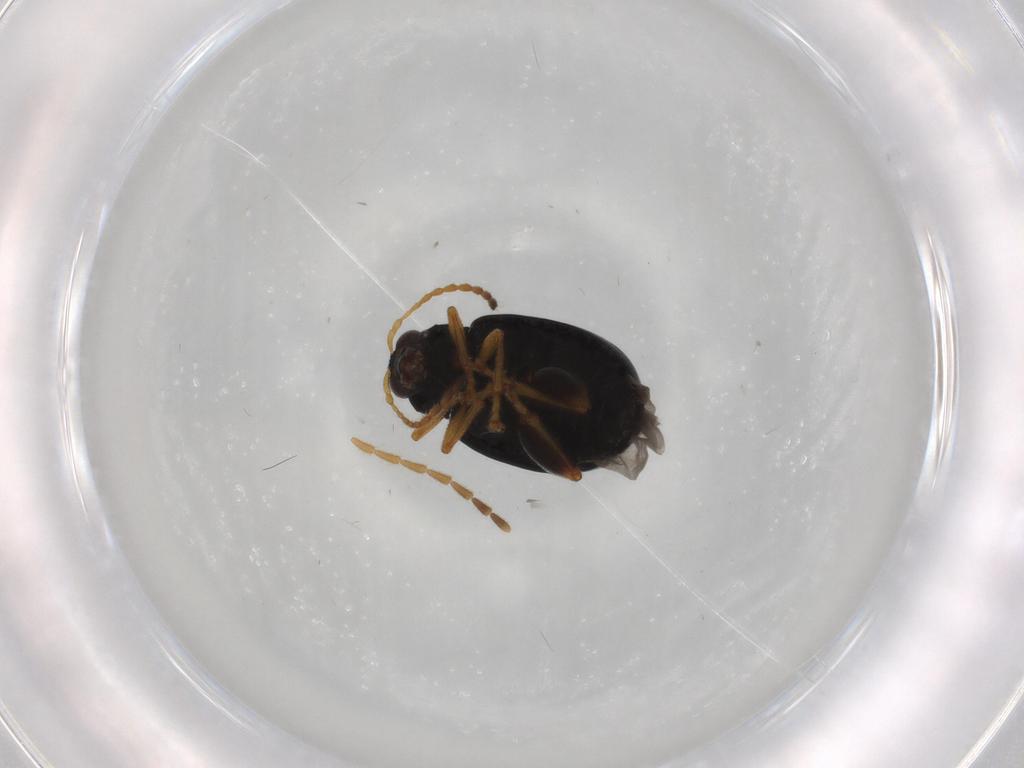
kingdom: Animalia
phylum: Arthropoda
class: Insecta
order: Coleoptera
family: Chrysomelidae
